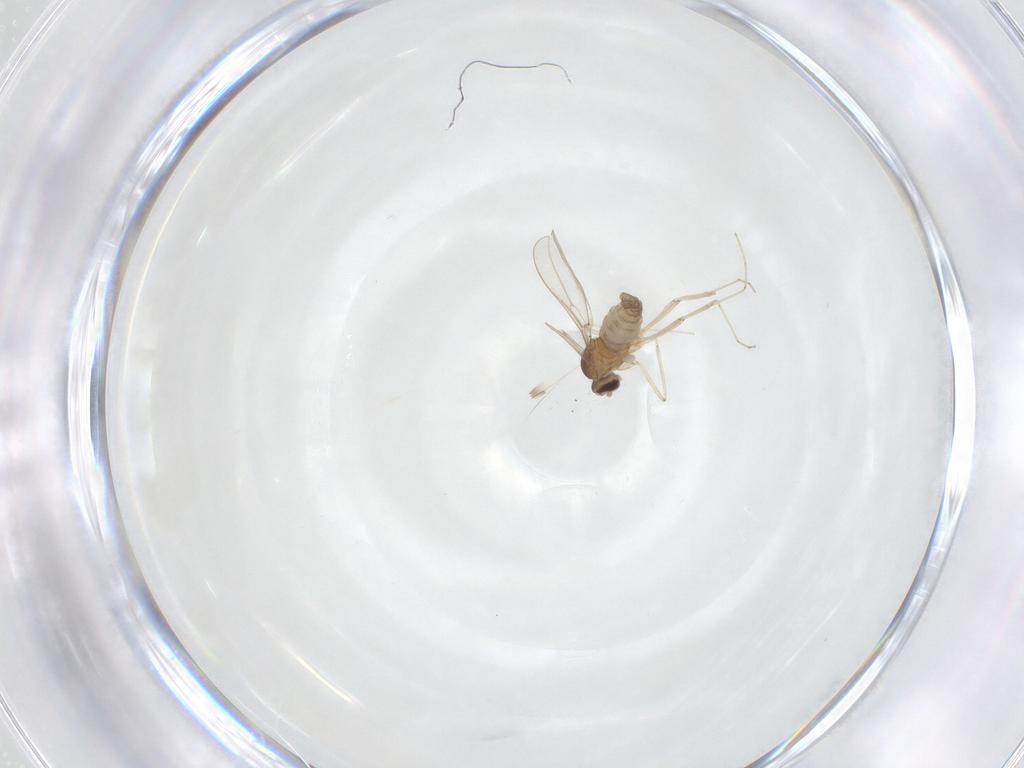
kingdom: Animalia
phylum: Arthropoda
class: Insecta
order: Diptera
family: Cecidomyiidae
